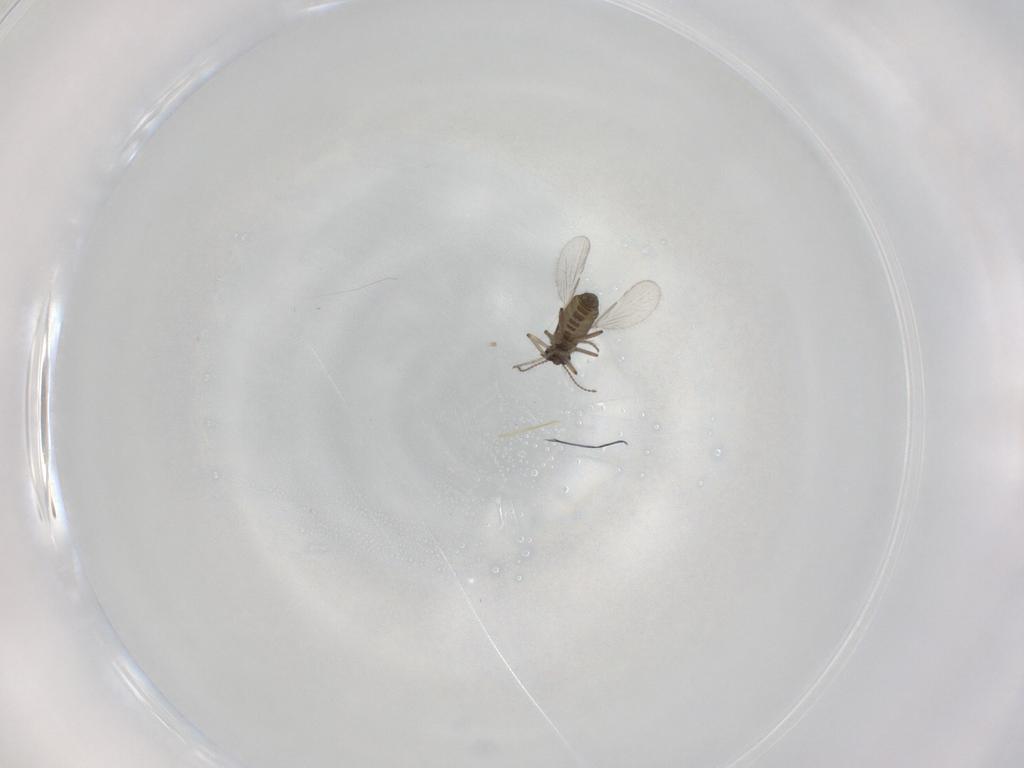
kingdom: Animalia
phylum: Arthropoda
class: Insecta
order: Diptera
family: Ceratopogonidae
